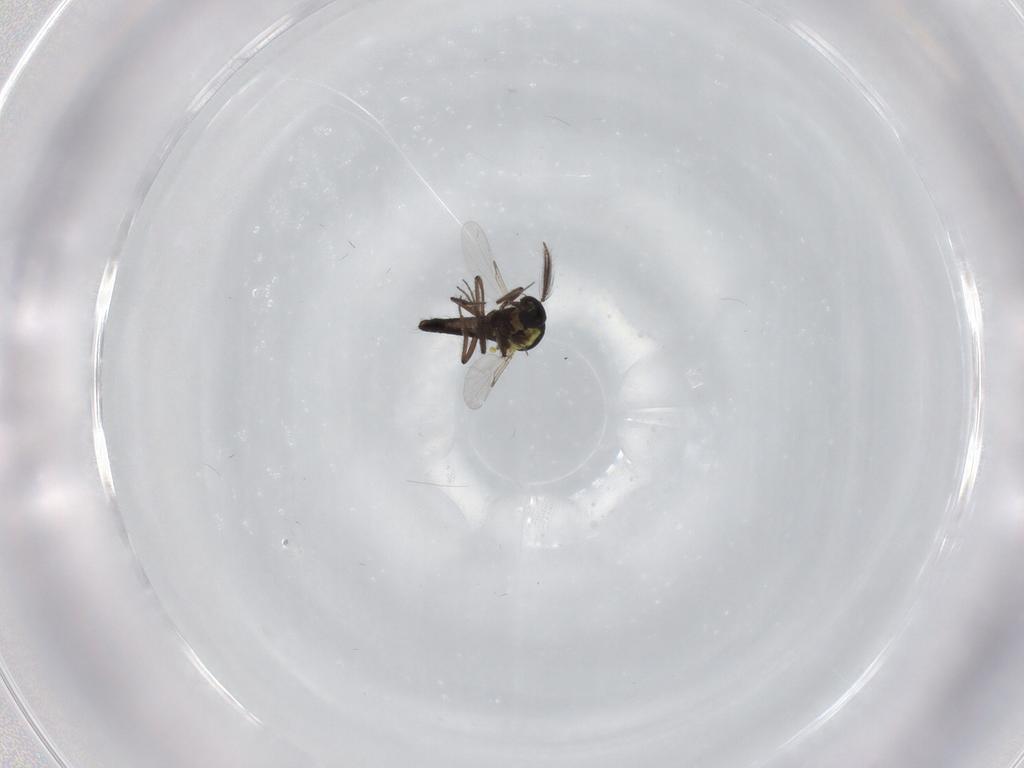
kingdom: Animalia
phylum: Arthropoda
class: Insecta
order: Diptera
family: Ceratopogonidae
